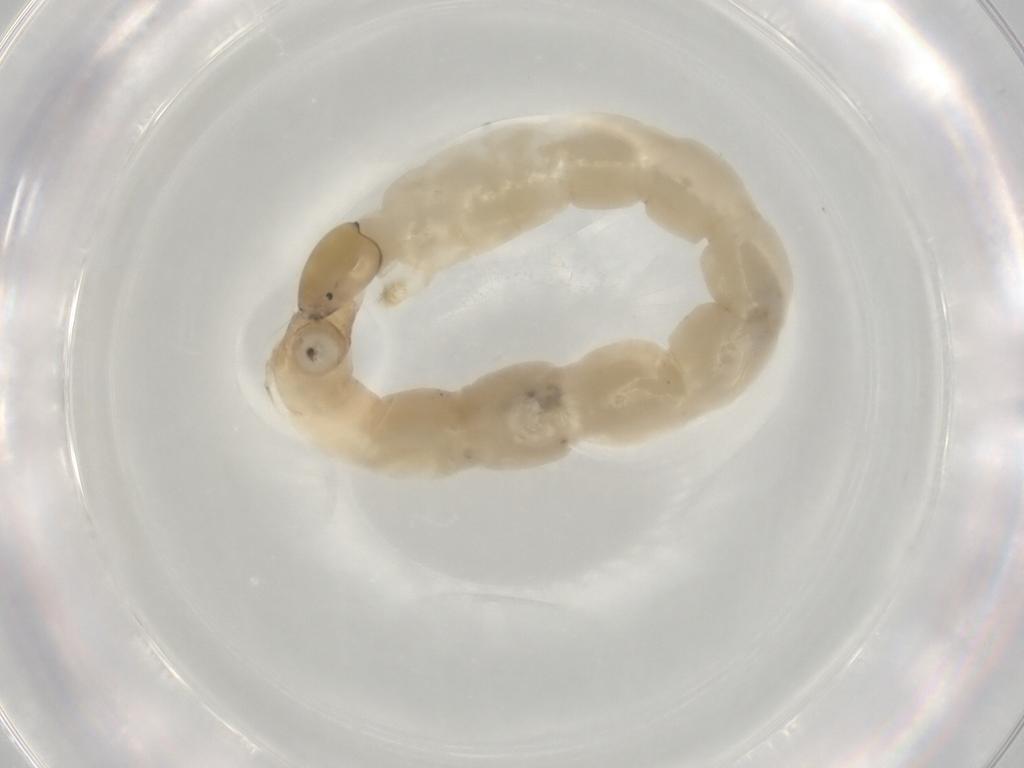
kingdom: Animalia
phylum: Arthropoda
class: Insecta
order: Diptera
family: Chironomidae
